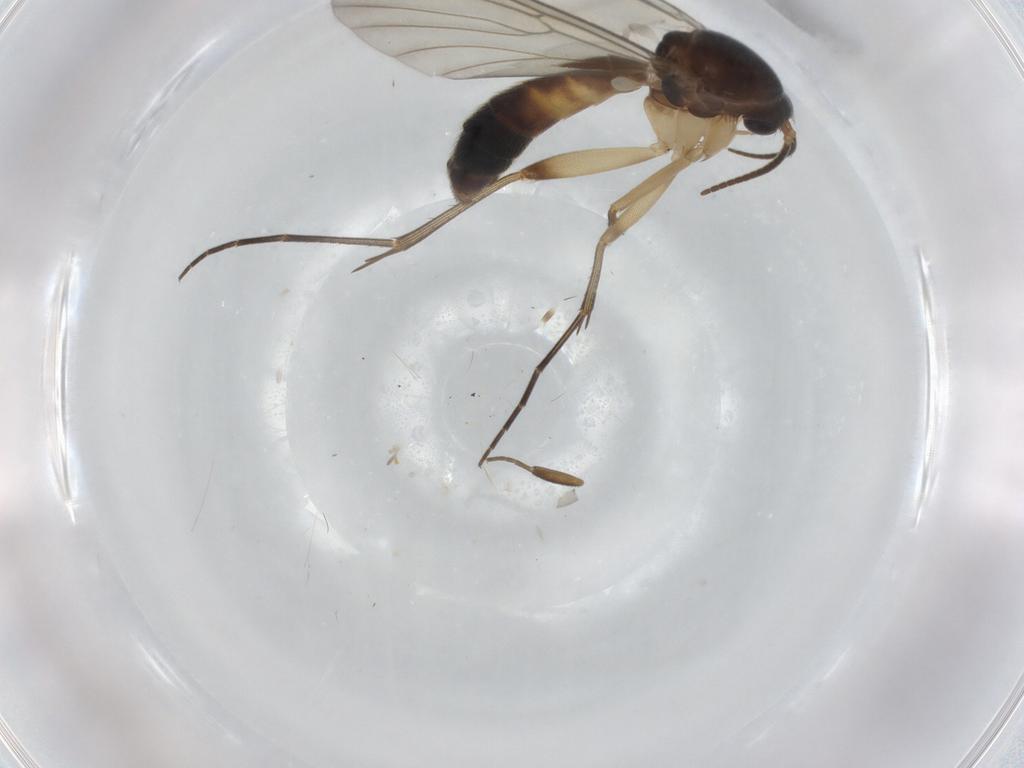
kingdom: Animalia
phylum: Arthropoda
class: Insecta
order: Diptera
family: Mycetophilidae
